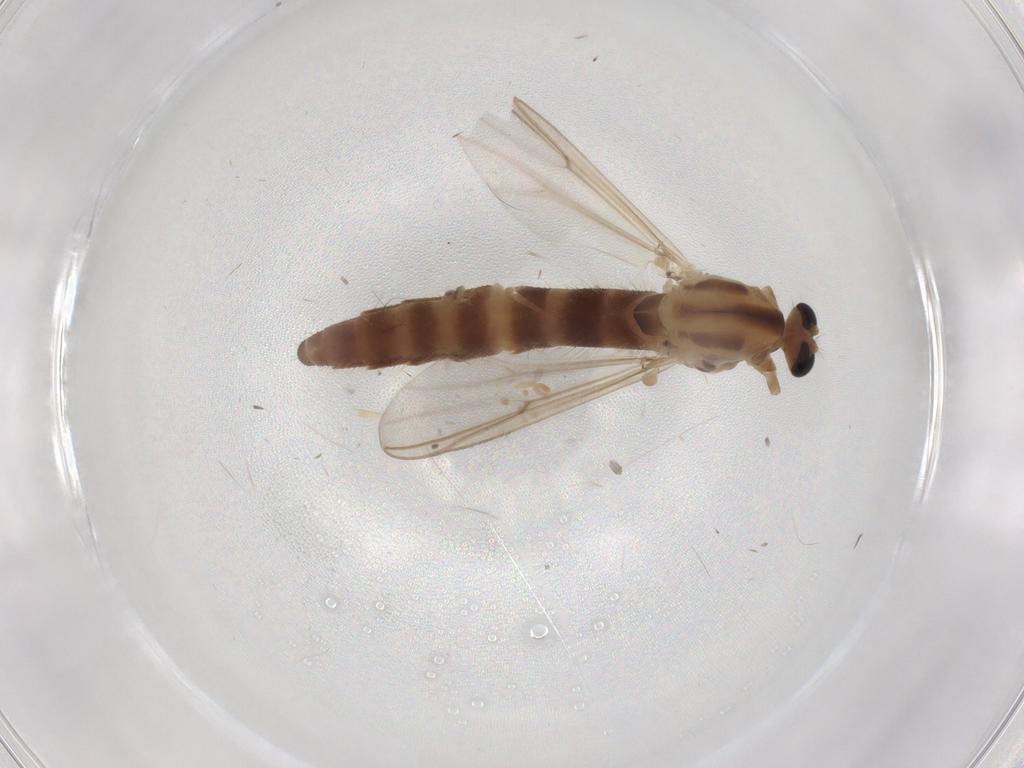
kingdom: Animalia
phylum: Arthropoda
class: Insecta
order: Diptera
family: Chironomidae
